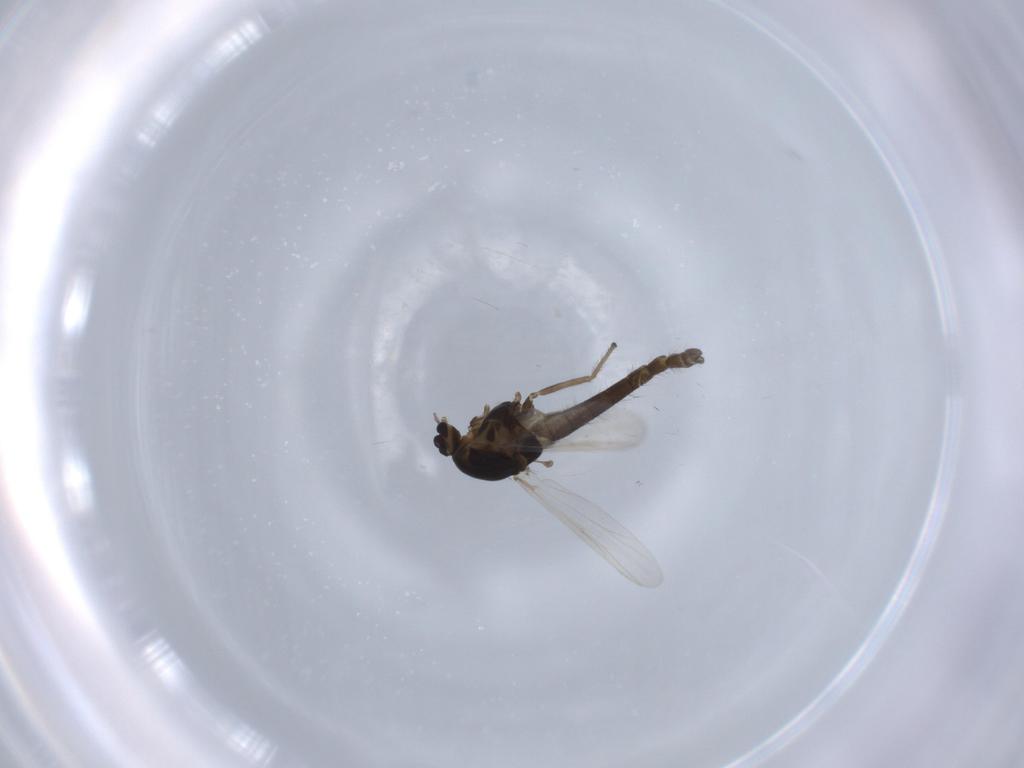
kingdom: Animalia
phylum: Arthropoda
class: Insecta
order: Diptera
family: Chironomidae
